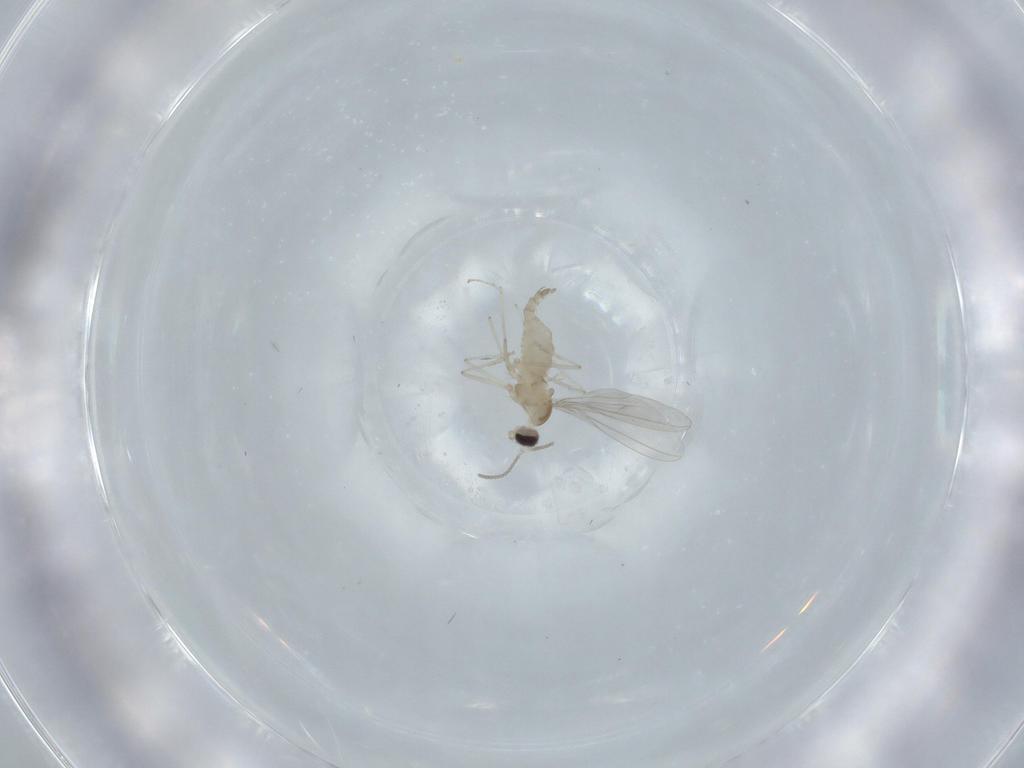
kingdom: Animalia
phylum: Arthropoda
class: Insecta
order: Diptera
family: Cecidomyiidae
